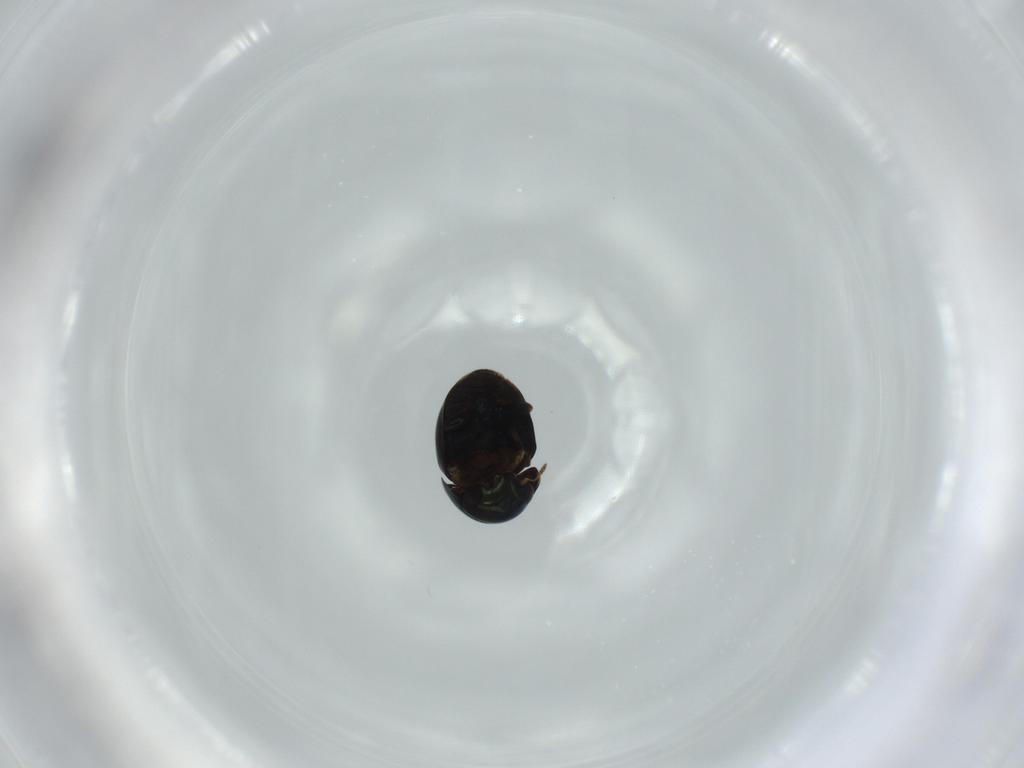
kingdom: Animalia
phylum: Arthropoda
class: Insecta
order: Coleoptera
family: Cybocephalidae
